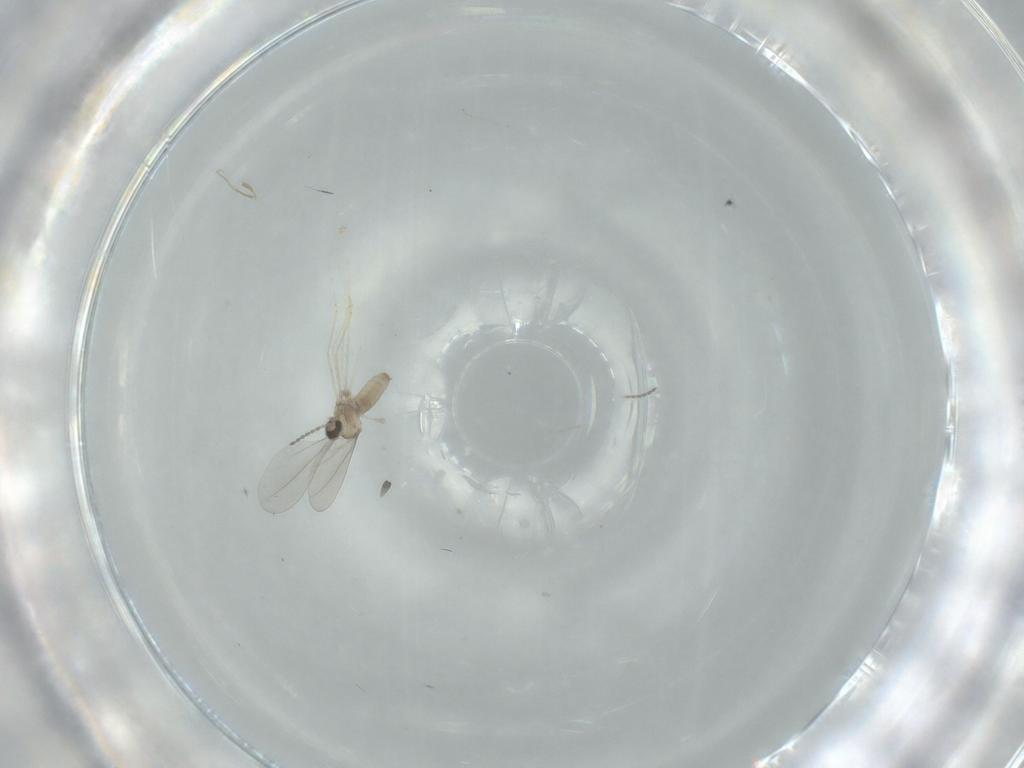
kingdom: Animalia
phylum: Arthropoda
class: Insecta
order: Diptera
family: Cecidomyiidae
